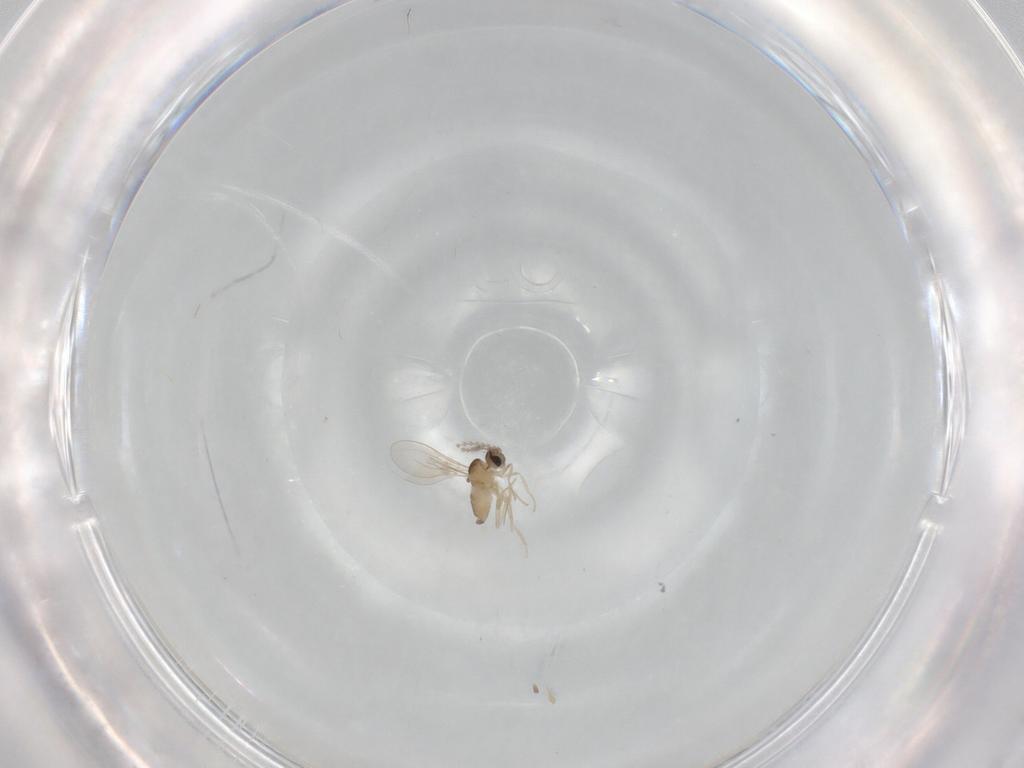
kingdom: Animalia
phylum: Arthropoda
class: Insecta
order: Diptera
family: Cecidomyiidae
